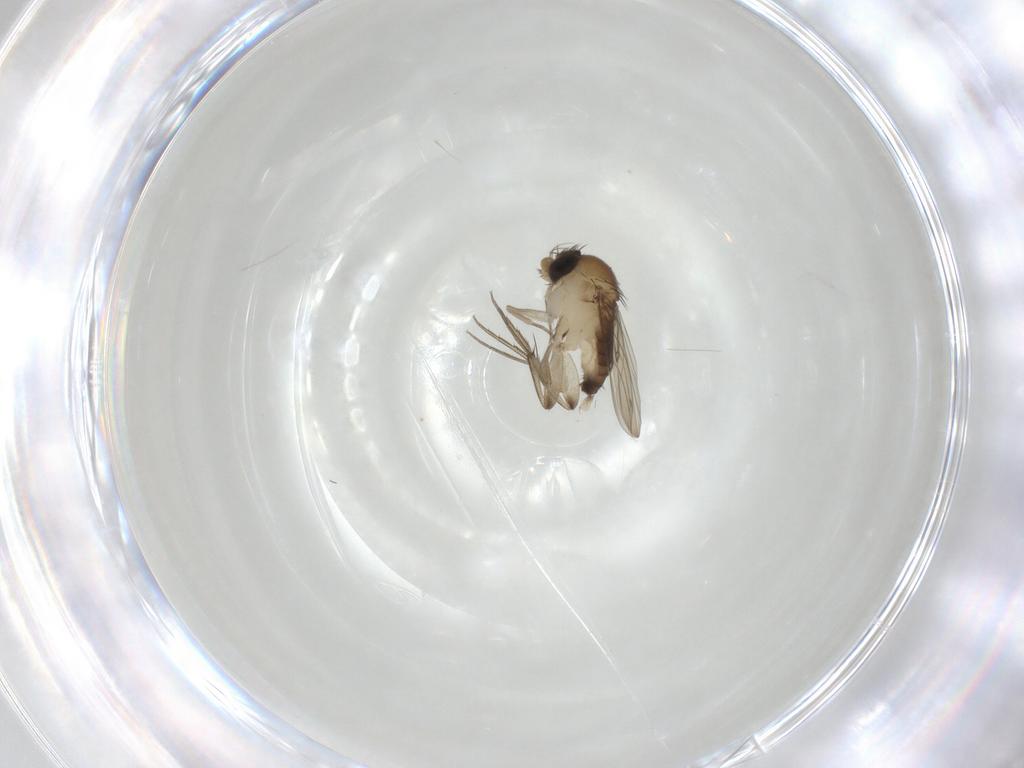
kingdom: Animalia
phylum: Arthropoda
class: Insecta
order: Diptera
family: Phoridae
